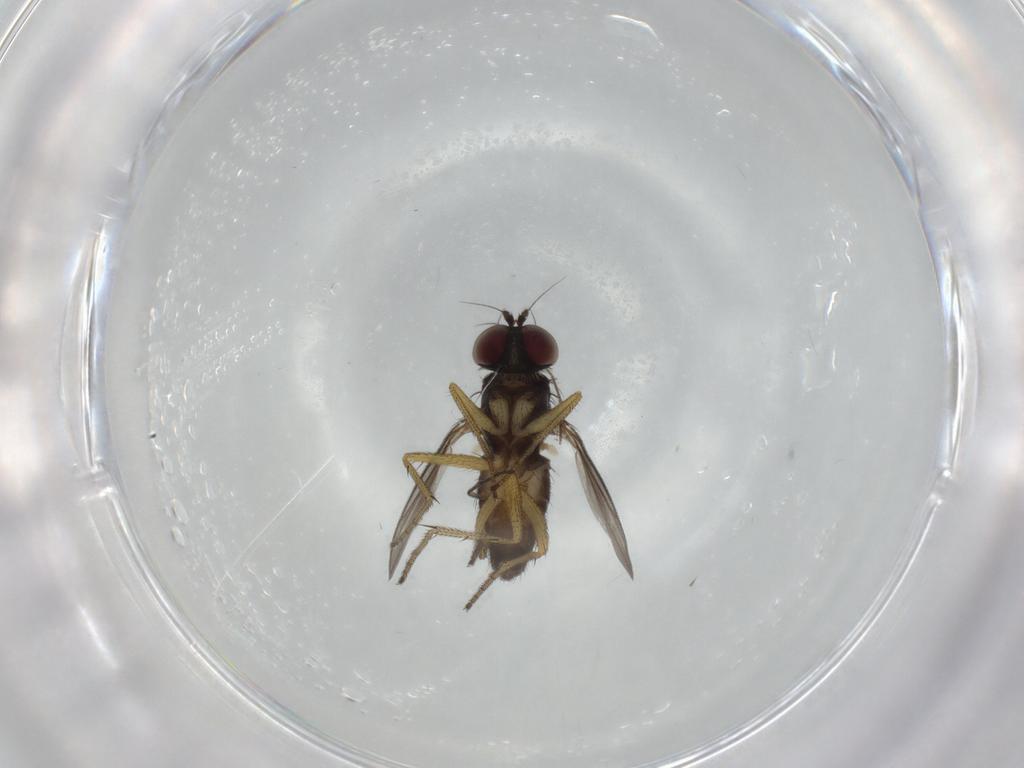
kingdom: Animalia
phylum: Arthropoda
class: Insecta
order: Diptera
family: Dolichopodidae
